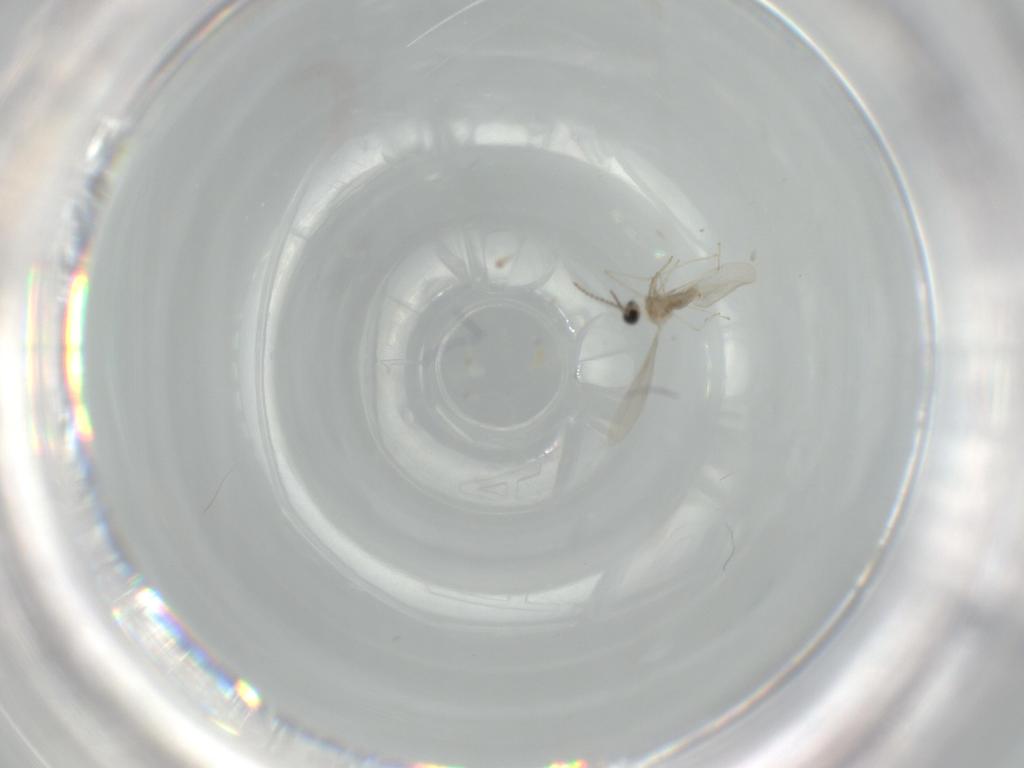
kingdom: Animalia
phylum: Arthropoda
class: Insecta
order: Diptera
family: Cecidomyiidae
